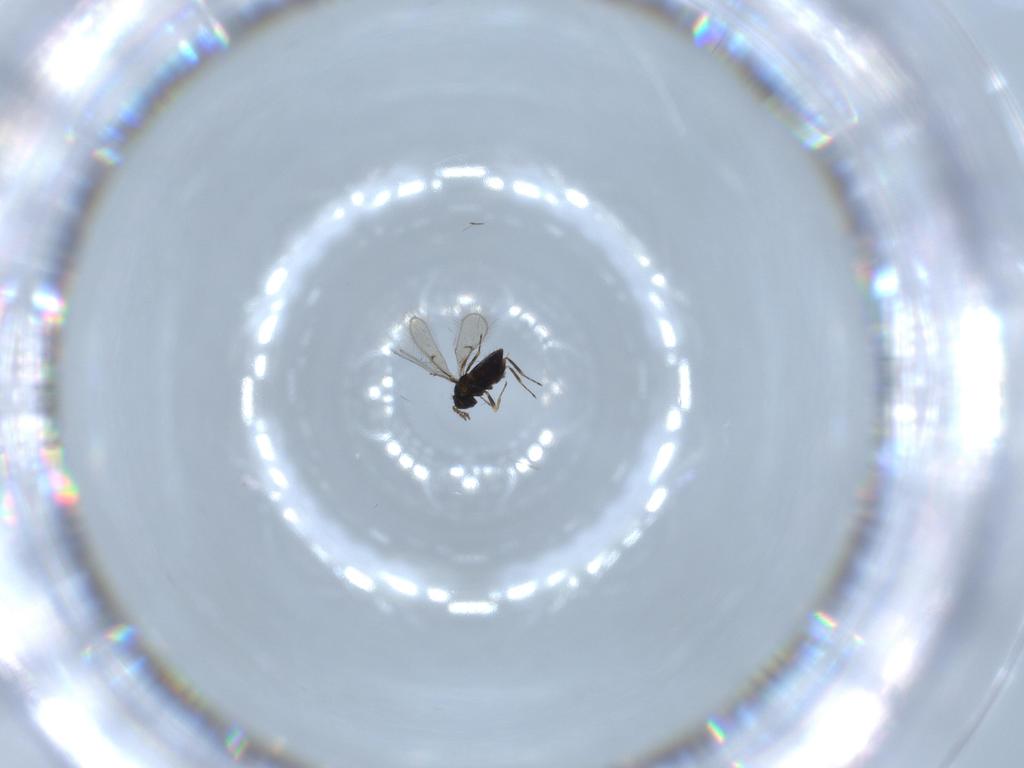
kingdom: Animalia
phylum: Arthropoda
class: Insecta
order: Hymenoptera
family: Trichogrammatidae
